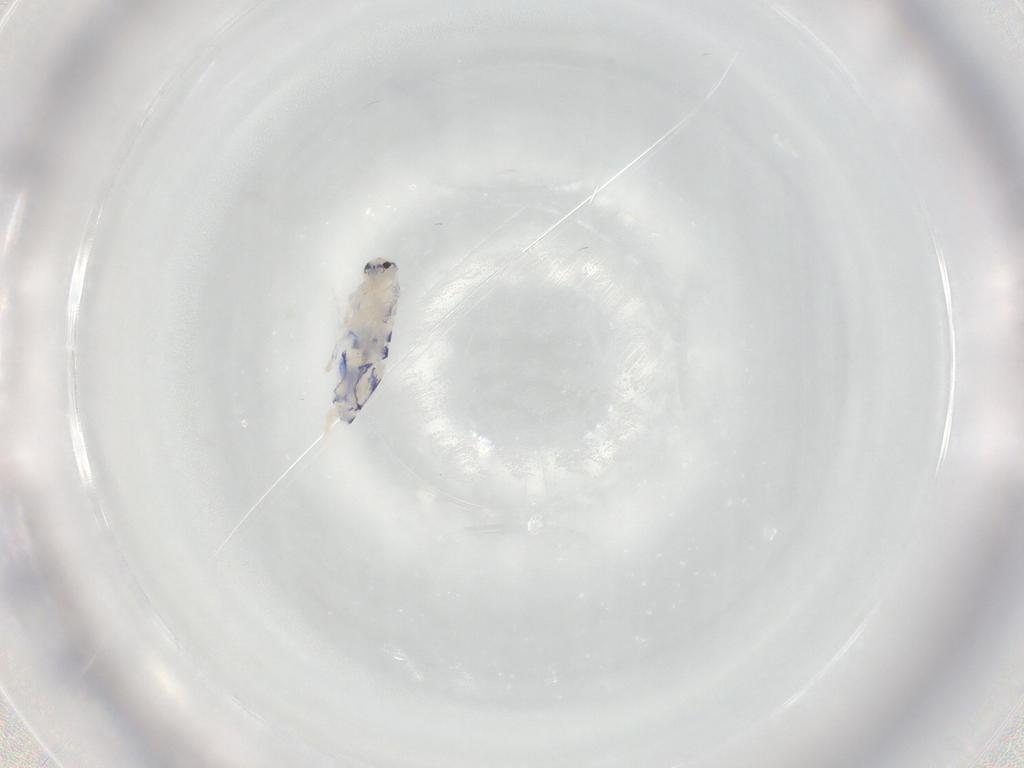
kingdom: Animalia
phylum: Arthropoda
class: Collembola
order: Entomobryomorpha
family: Entomobryidae
